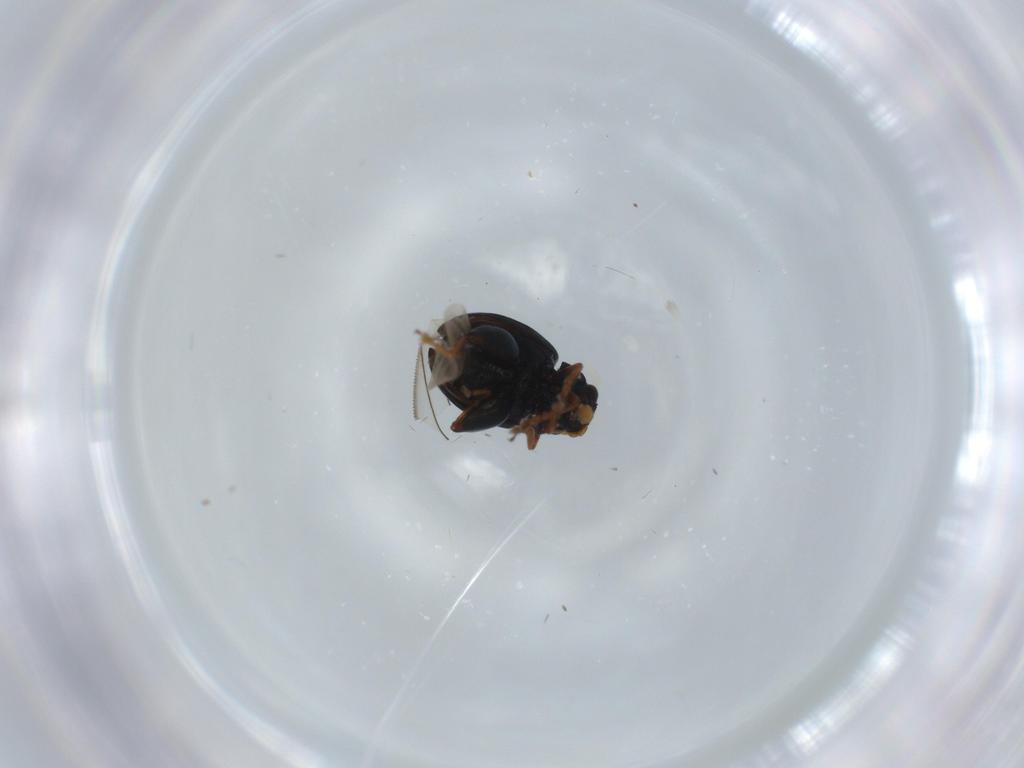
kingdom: Animalia
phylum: Arthropoda
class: Insecta
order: Coleoptera
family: Chrysomelidae
